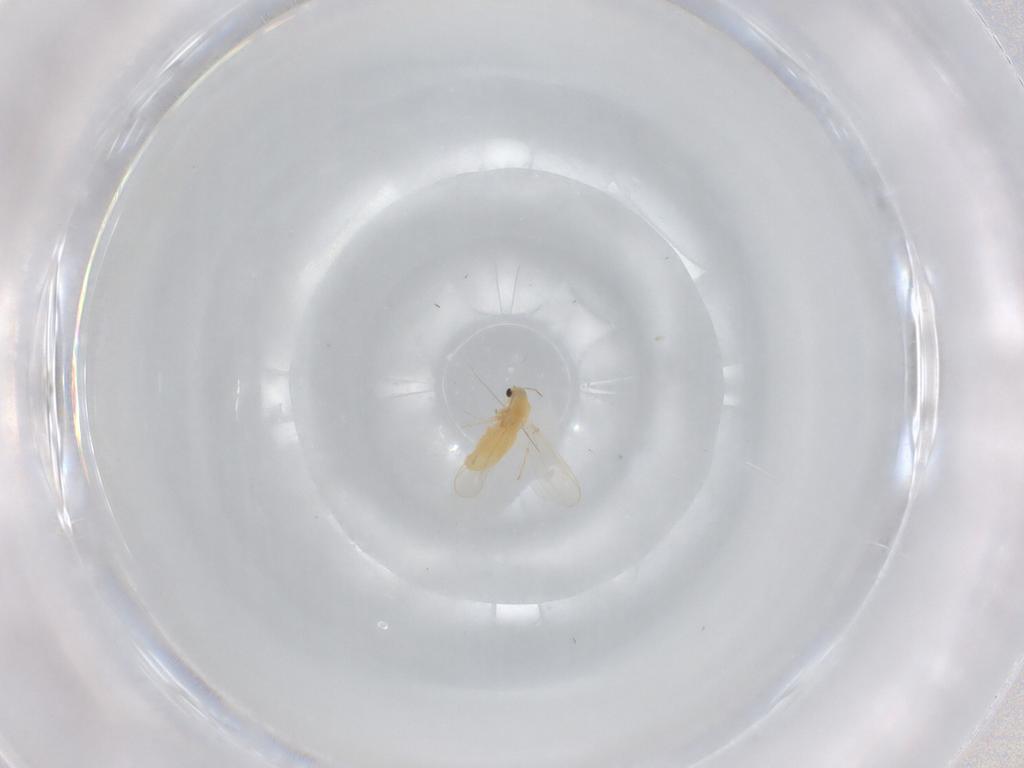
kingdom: Animalia
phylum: Arthropoda
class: Insecta
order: Diptera
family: Chironomidae
